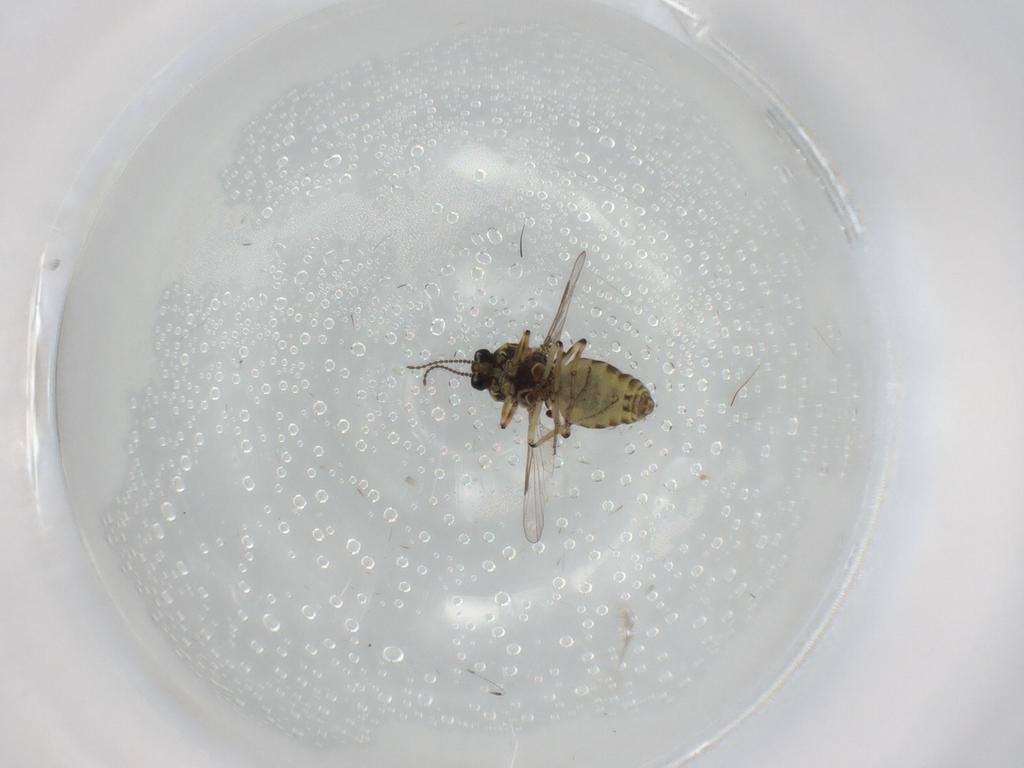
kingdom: Animalia
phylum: Arthropoda
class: Insecta
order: Diptera
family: Ceratopogonidae
